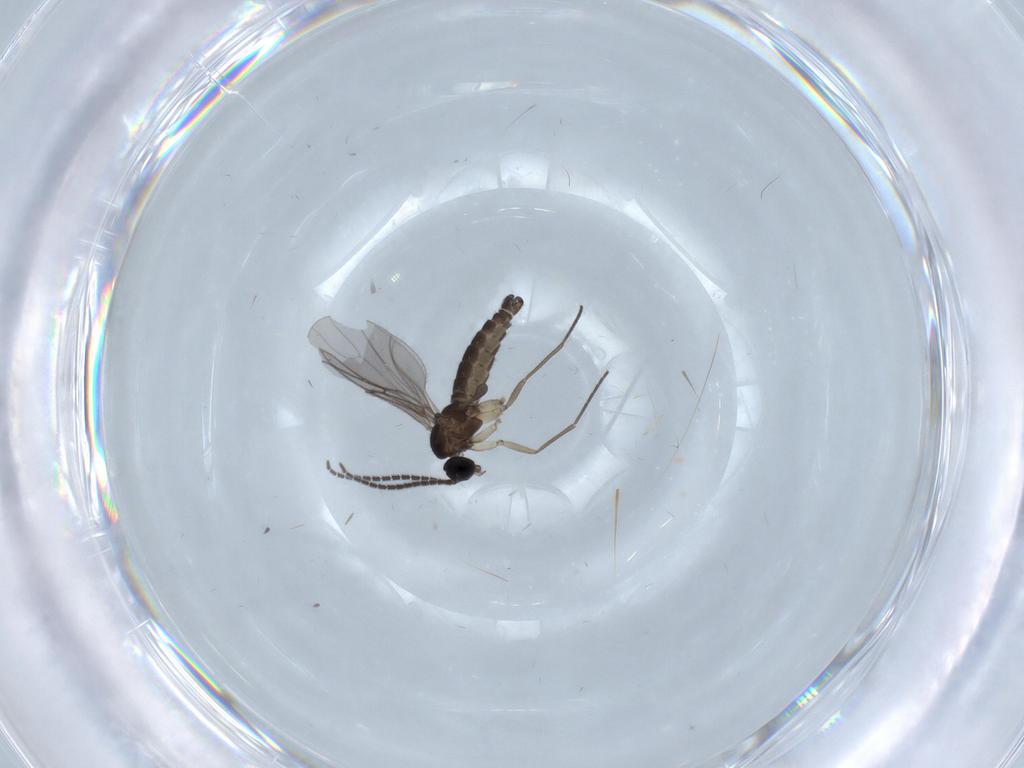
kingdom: Animalia
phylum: Arthropoda
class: Insecta
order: Diptera
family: Sciaridae
